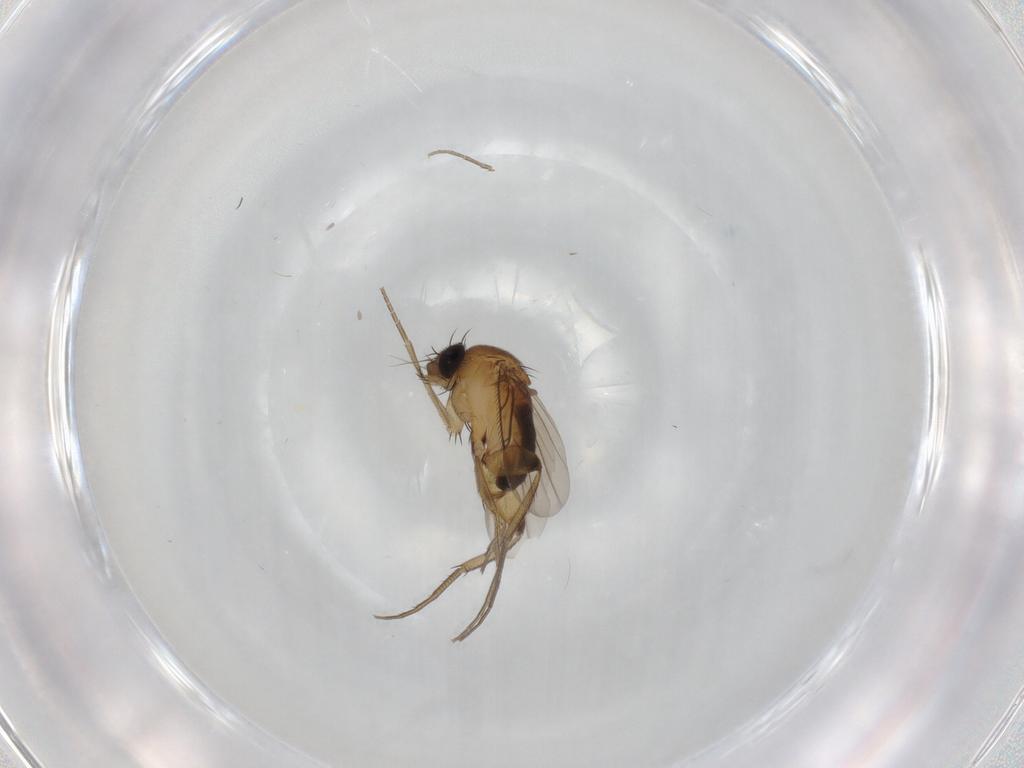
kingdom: Animalia
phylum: Arthropoda
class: Insecta
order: Diptera
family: Phoridae
